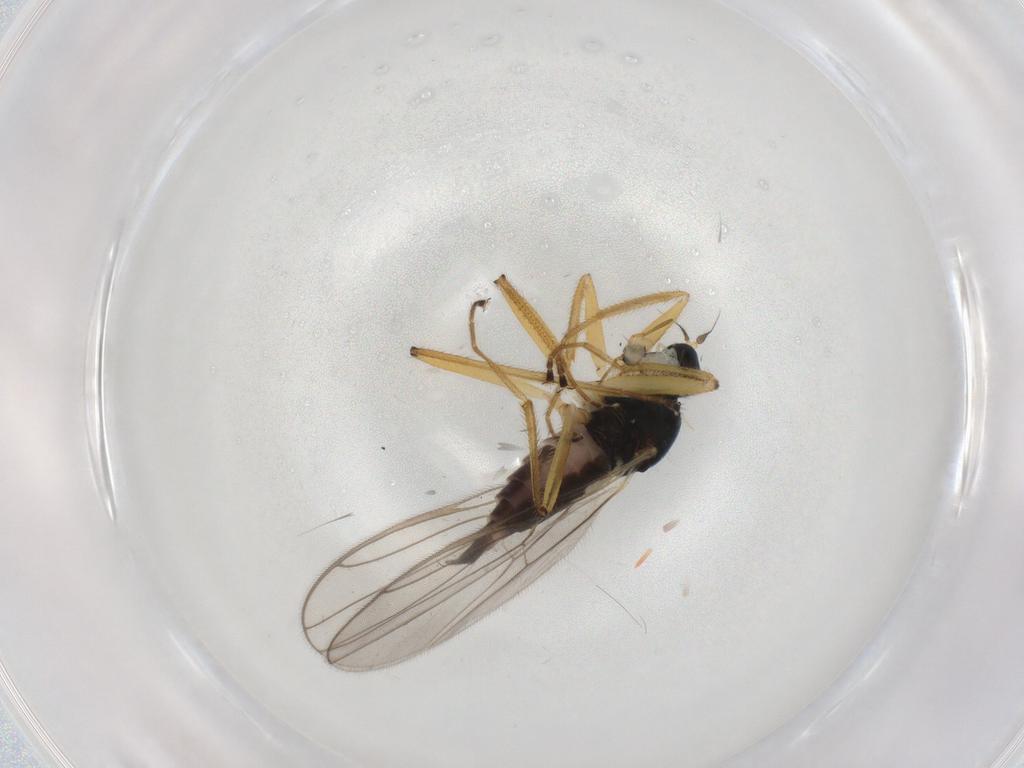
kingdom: Animalia
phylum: Arthropoda
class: Insecta
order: Diptera
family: Hybotidae
